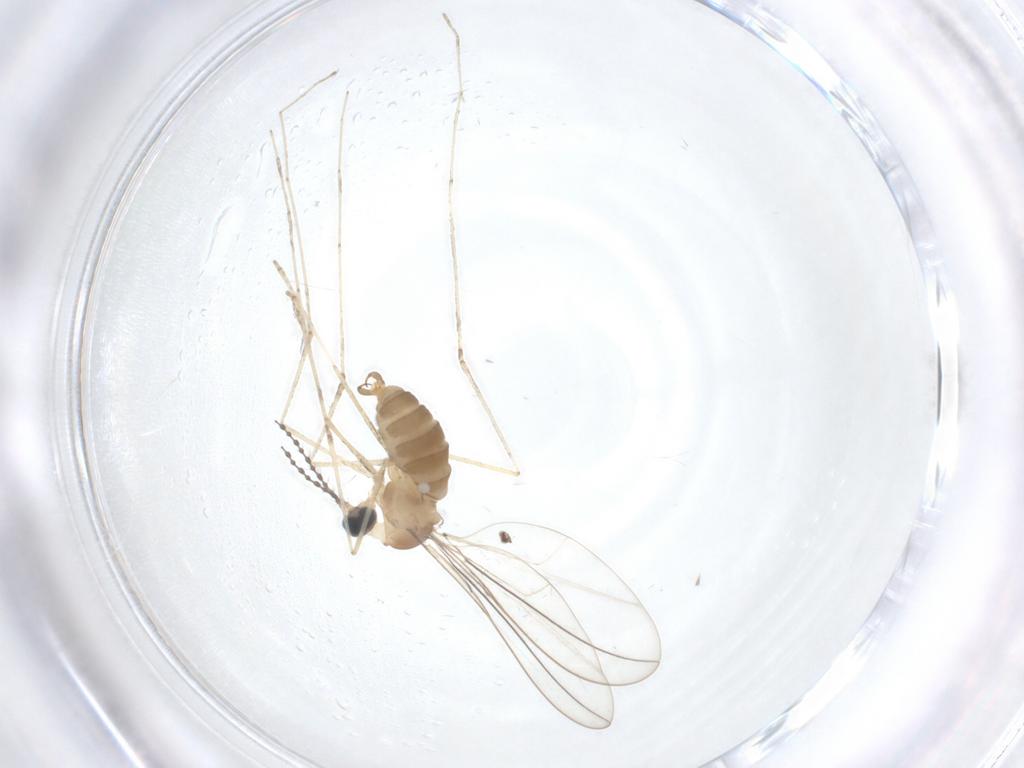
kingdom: Animalia
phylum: Arthropoda
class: Insecta
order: Diptera
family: Cecidomyiidae
